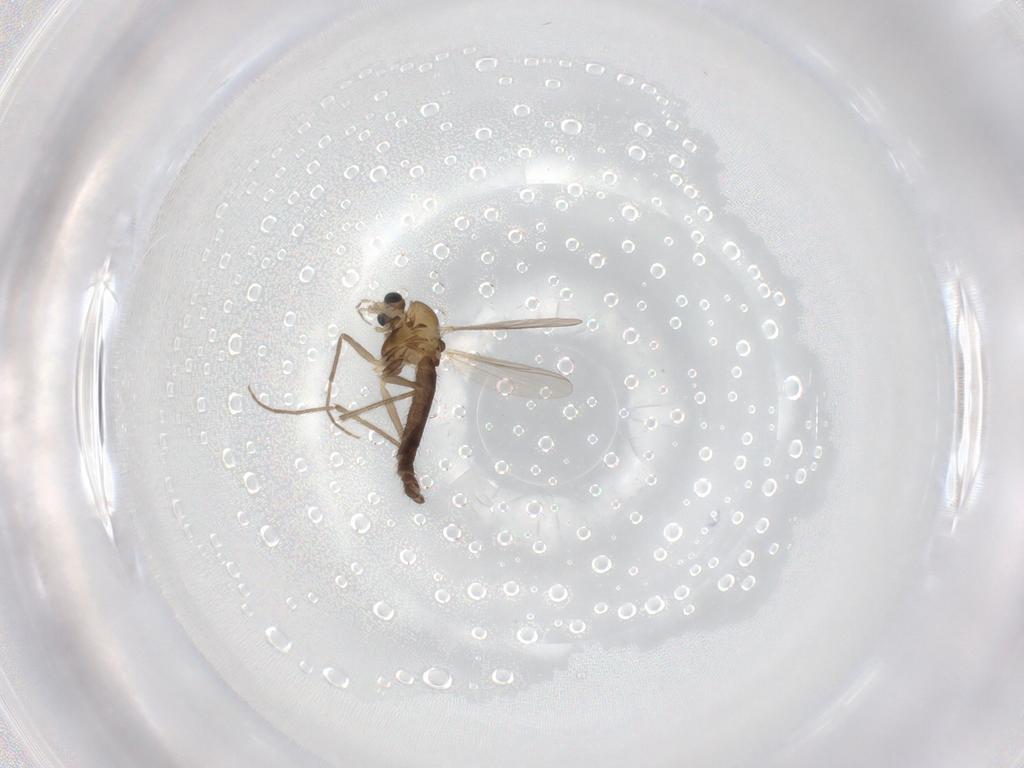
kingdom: Animalia
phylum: Arthropoda
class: Insecta
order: Diptera
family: Chironomidae
